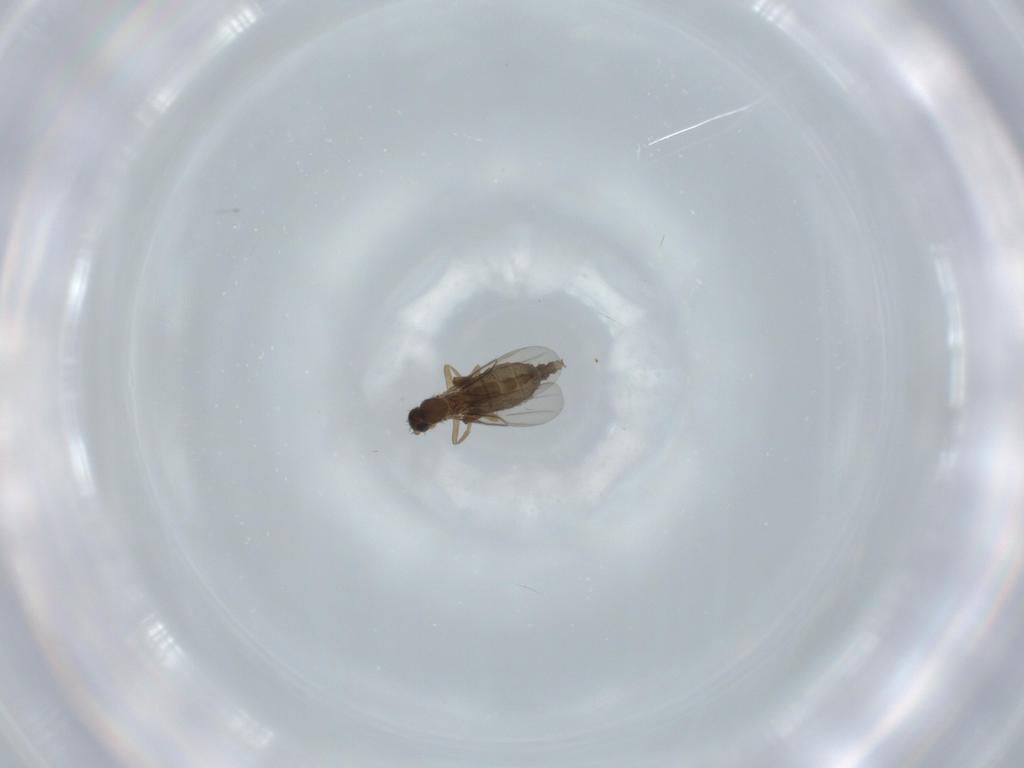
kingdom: Animalia
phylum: Arthropoda
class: Insecta
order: Diptera
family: Phoridae
